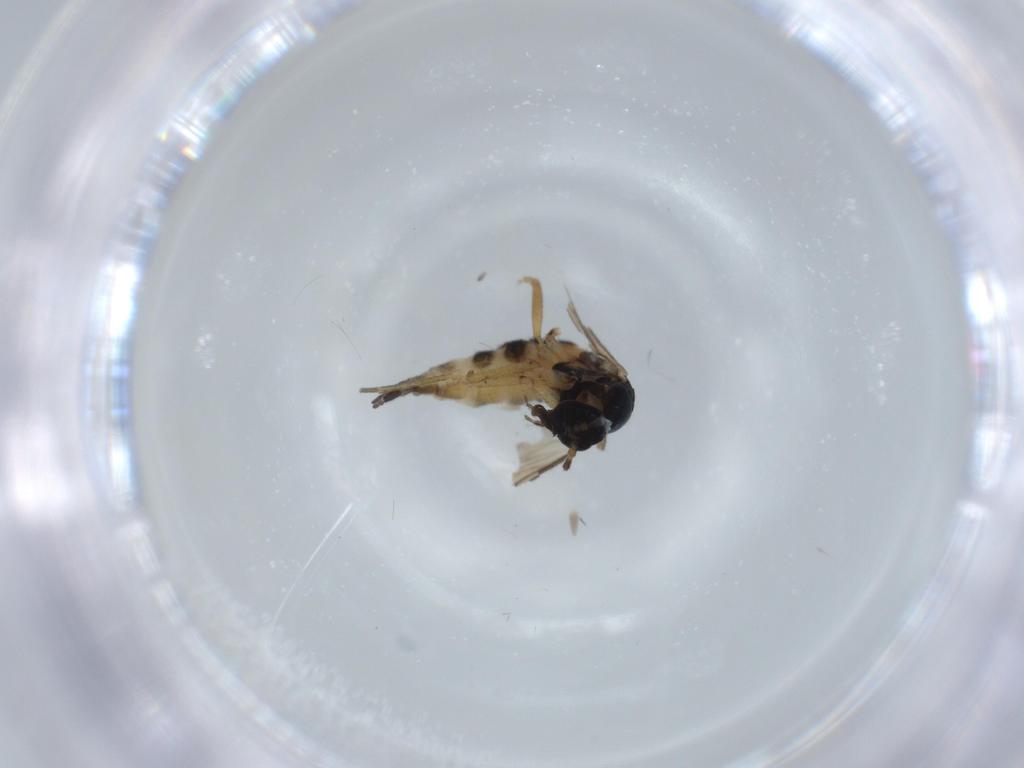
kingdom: Animalia
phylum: Arthropoda
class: Insecta
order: Diptera
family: Sciaridae
